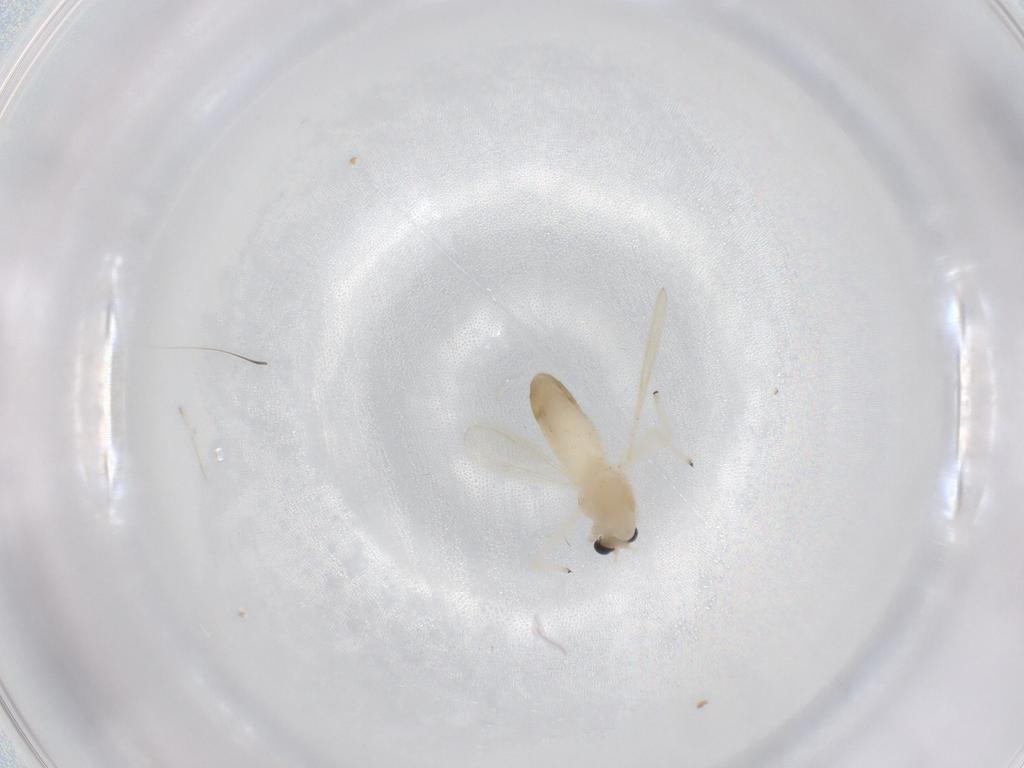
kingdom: Animalia
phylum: Arthropoda
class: Insecta
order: Diptera
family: Chironomidae
